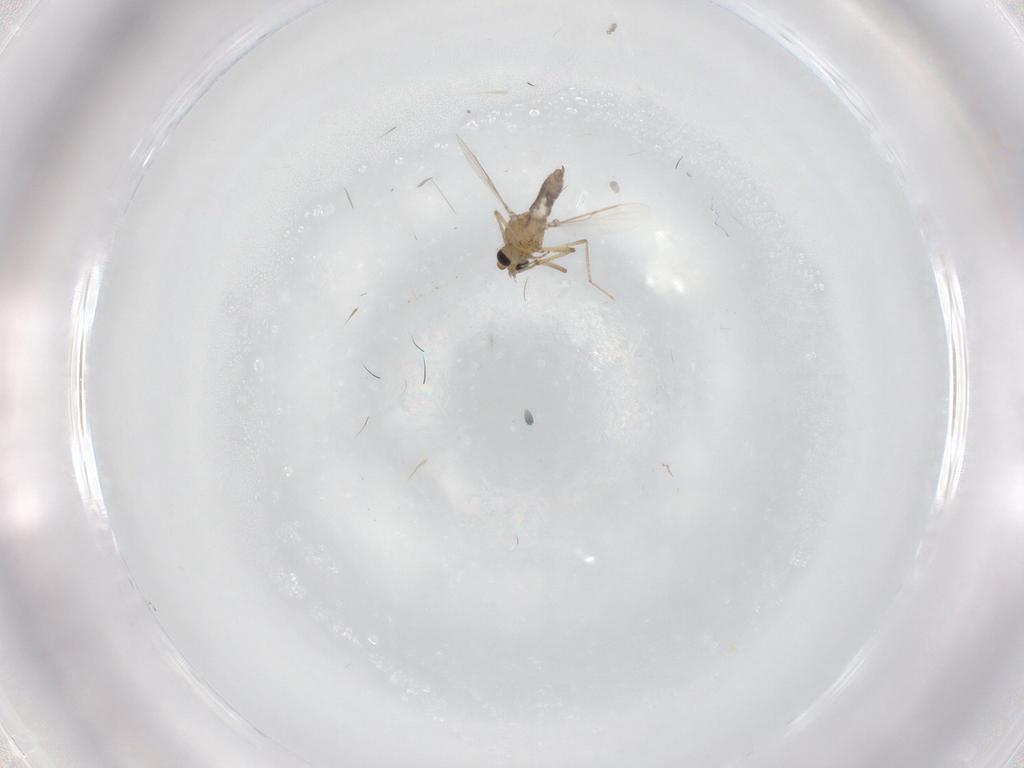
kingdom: Animalia
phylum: Arthropoda
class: Insecta
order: Diptera
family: Cecidomyiidae
